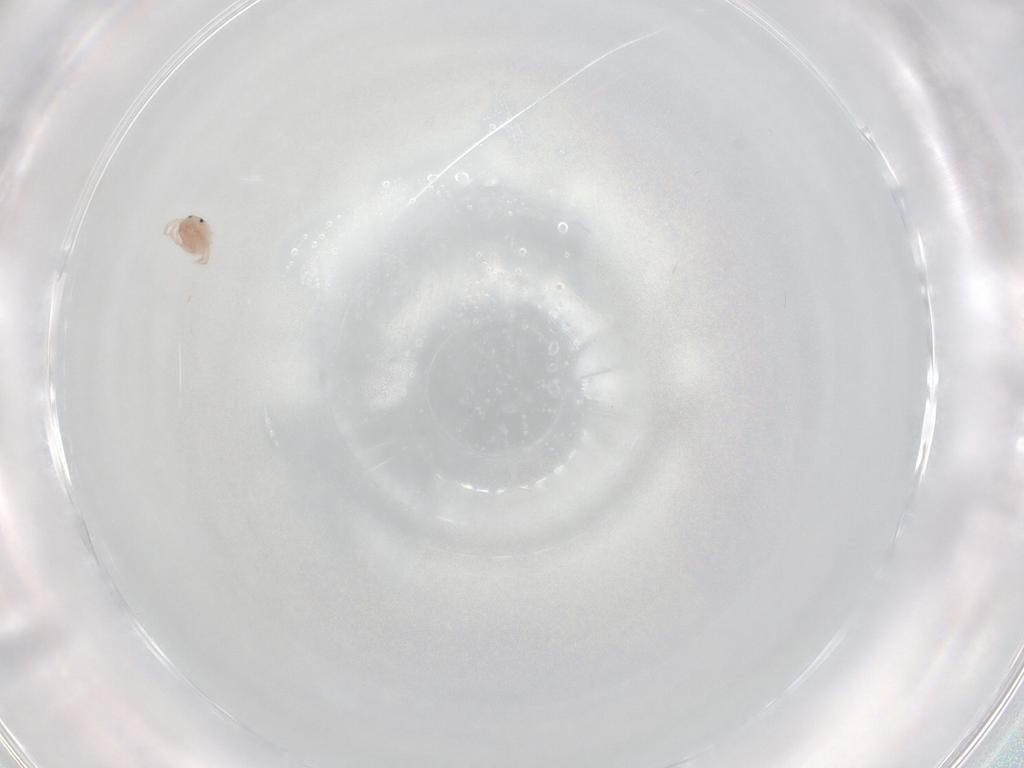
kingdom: Animalia
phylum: Arthropoda
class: Arachnida
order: Trombidiformes
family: Lebertiidae
